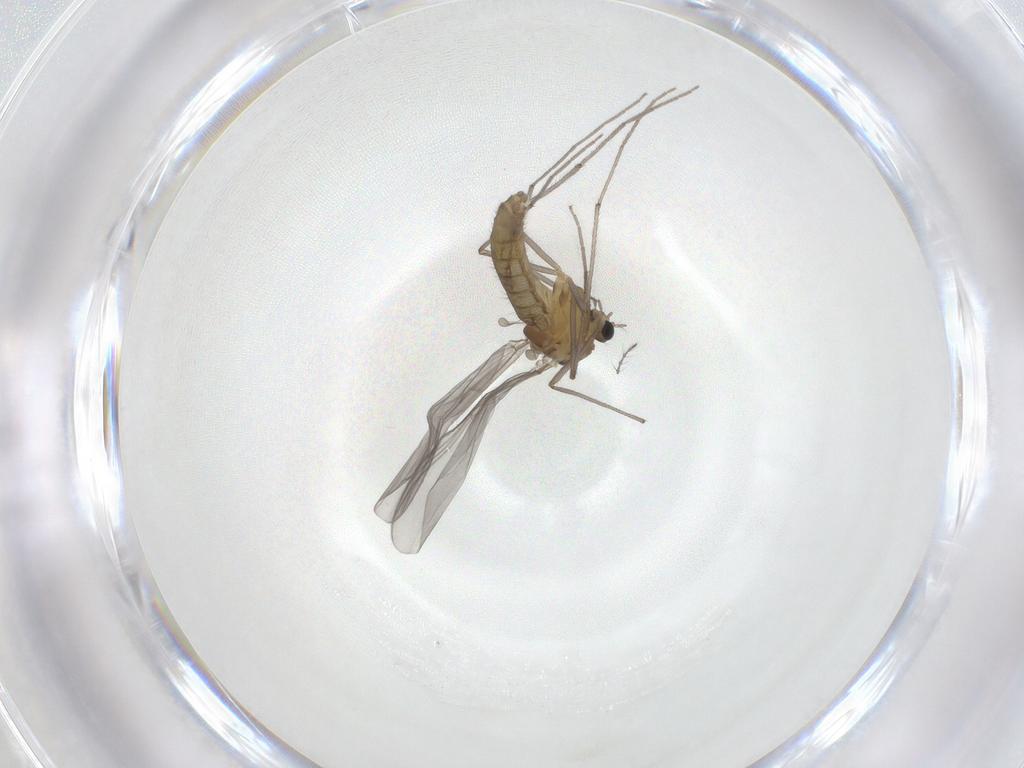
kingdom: Animalia
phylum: Arthropoda
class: Insecta
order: Diptera
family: Chironomidae
